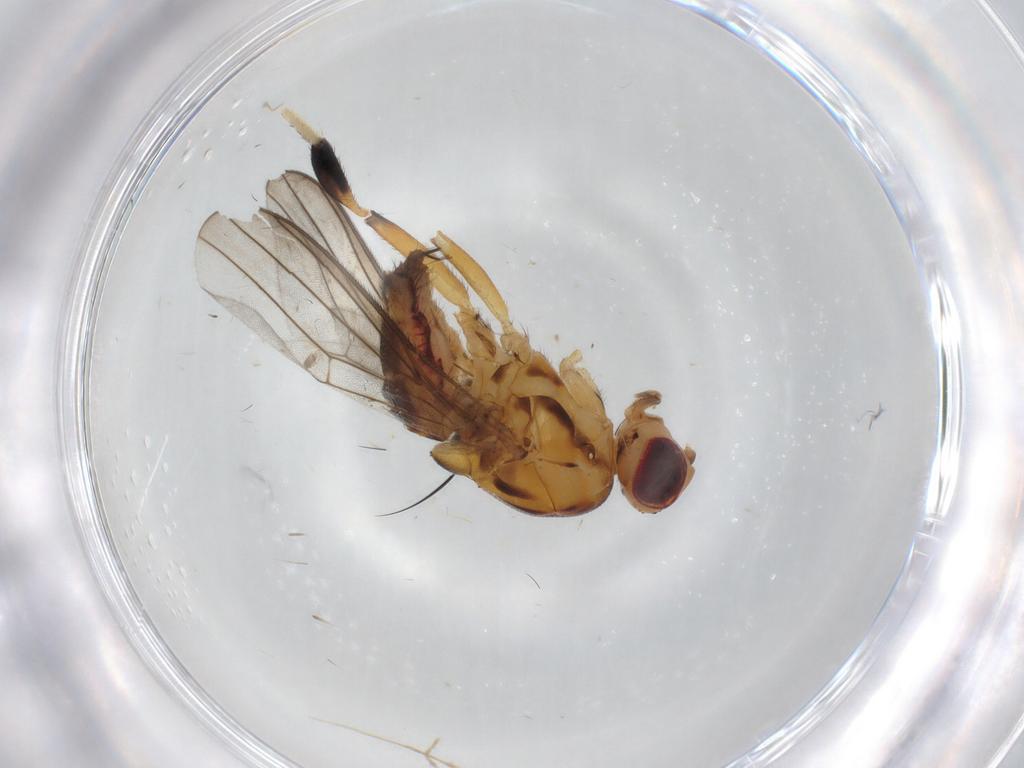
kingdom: Animalia
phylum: Arthropoda
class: Insecta
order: Diptera
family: Chloropidae
